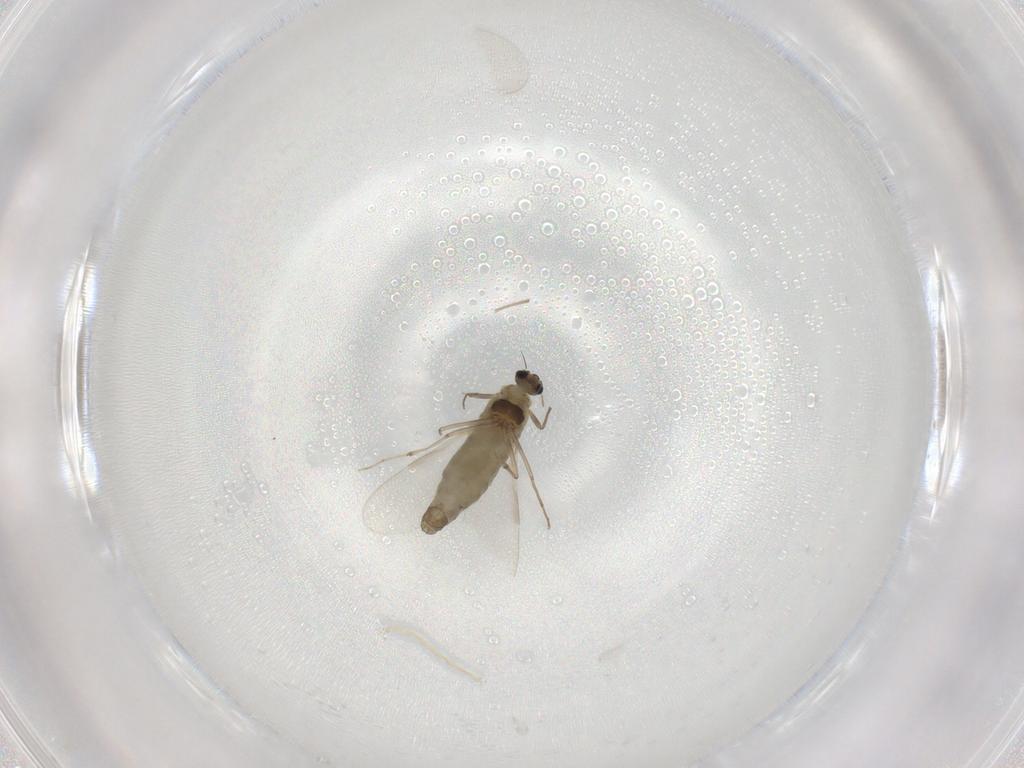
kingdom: Animalia
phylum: Arthropoda
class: Insecta
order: Diptera
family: Chironomidae
